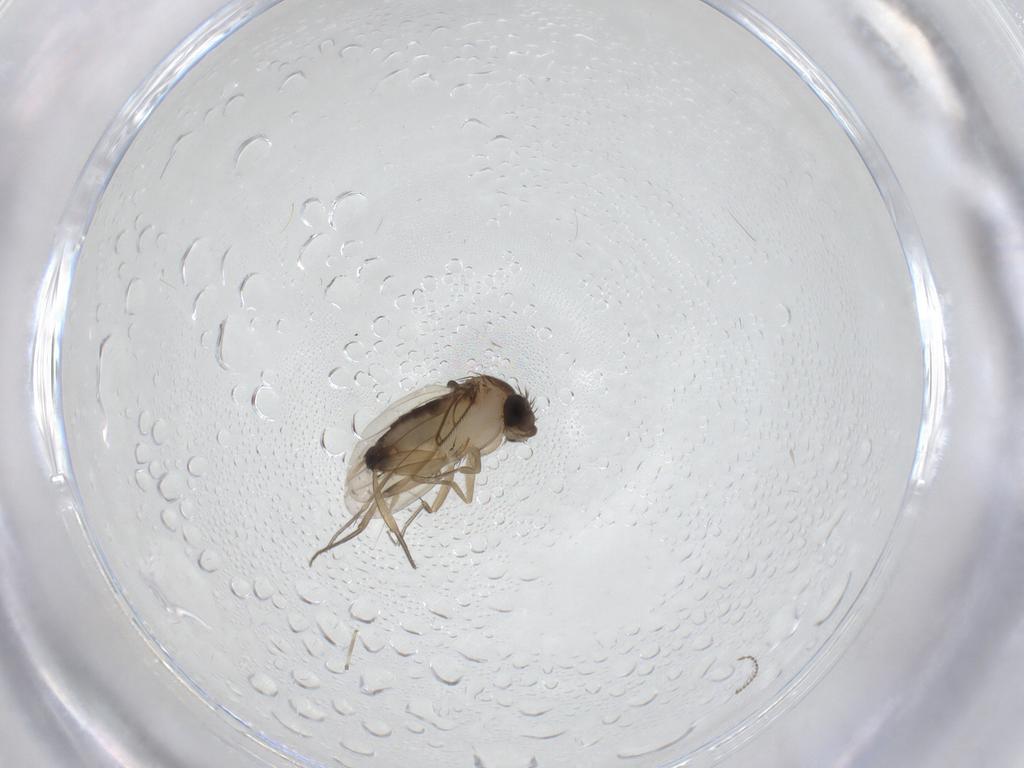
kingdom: Animalia
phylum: Arthropoda
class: Insecta
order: Diptera
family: Phoridae
